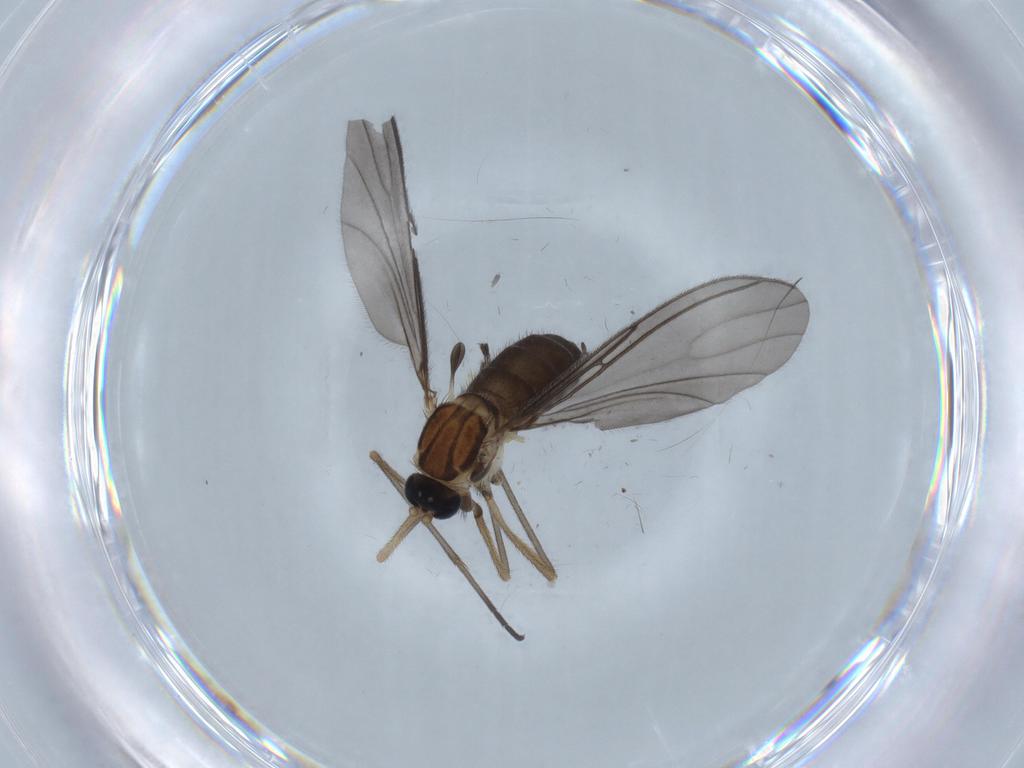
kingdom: Animalia
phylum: Arthropoda
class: Insecta
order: Diptera
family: Sciaridae
